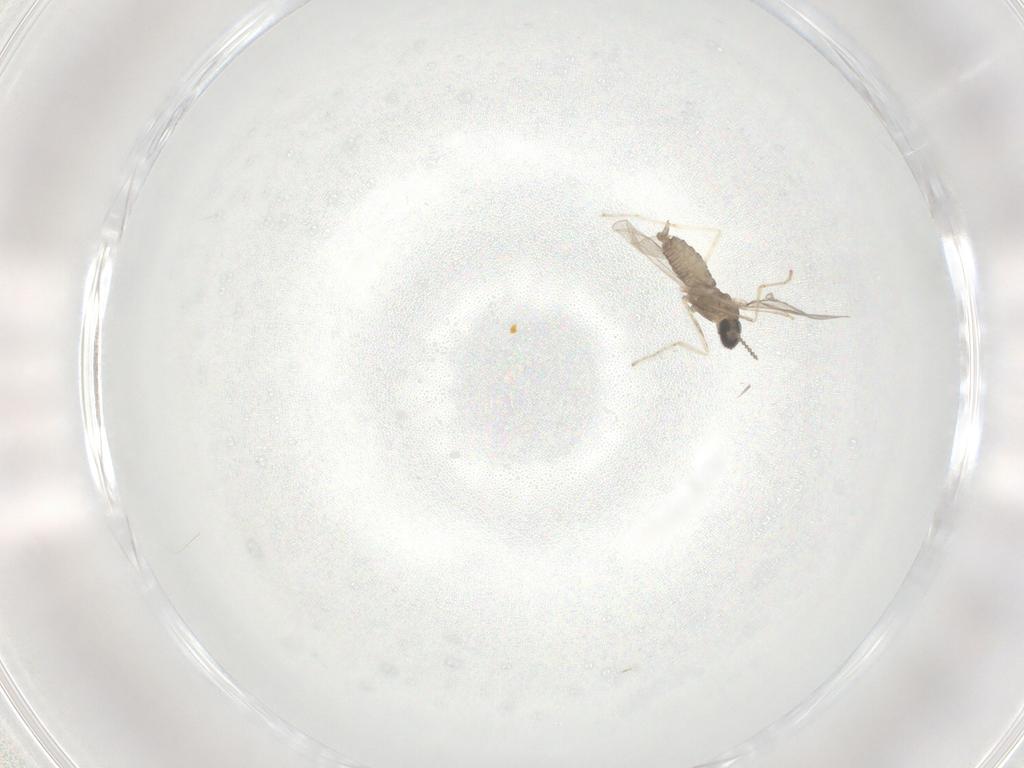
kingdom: Animalia
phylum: Arthropoda
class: Insecta
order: Diptera
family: Cecidomyiidae
